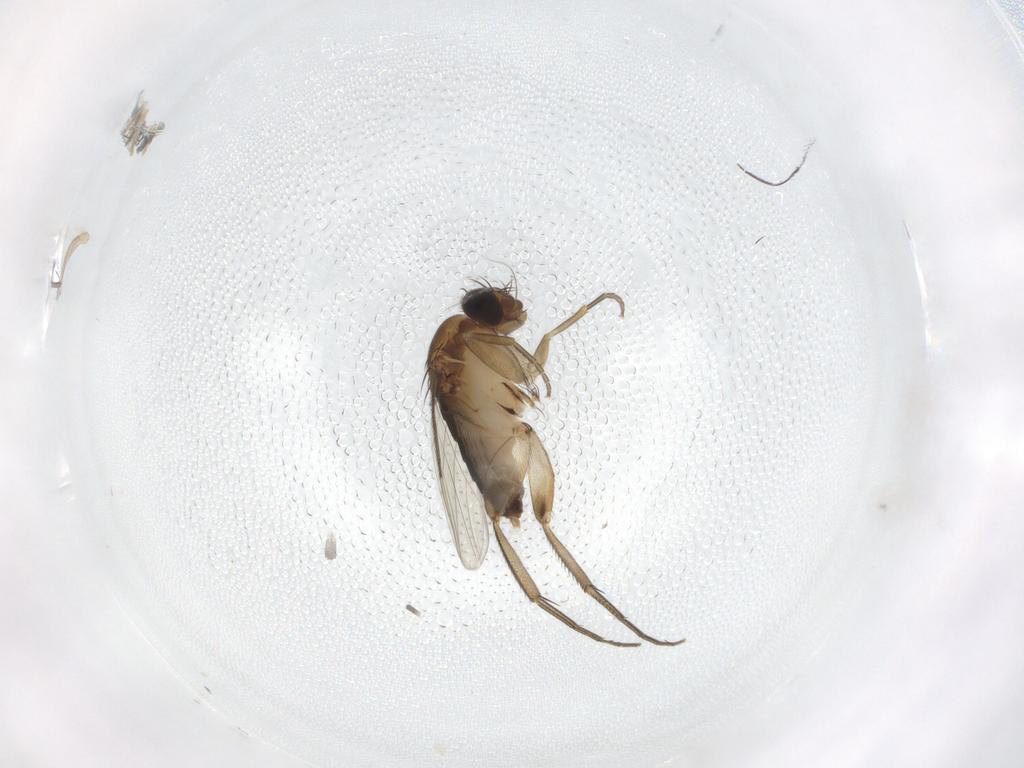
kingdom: Animalia
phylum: Arthropoda
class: Insecta
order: Diptera
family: Phoridae
